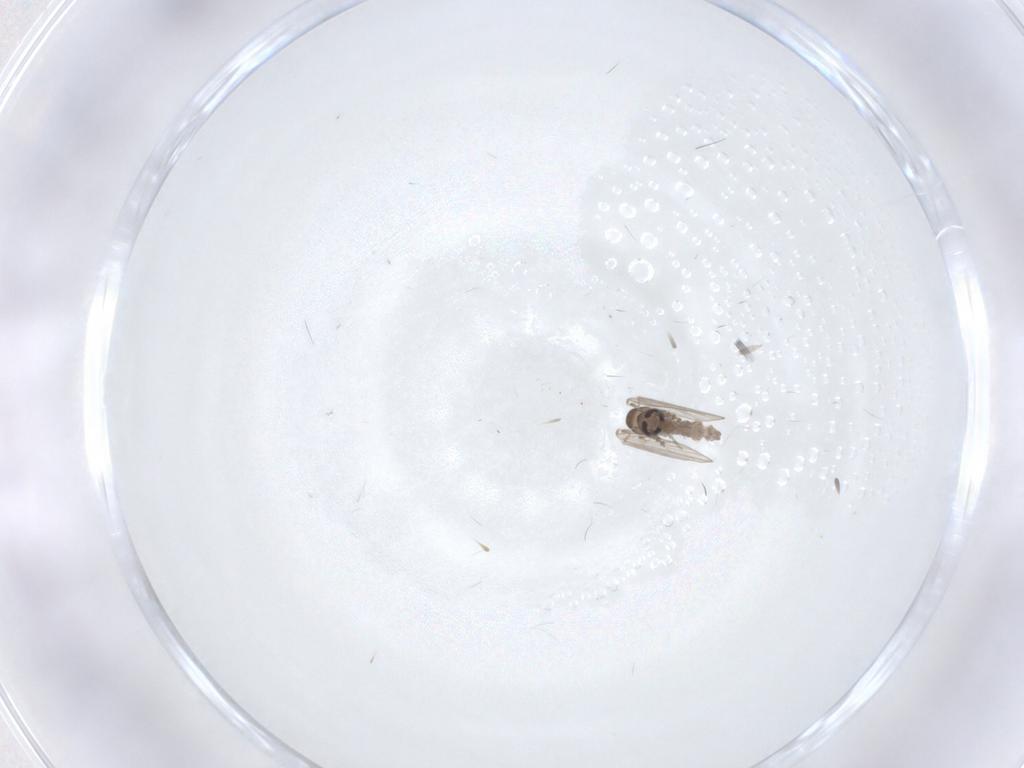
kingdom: Animalia
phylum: Arthropoda
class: Insecta
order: Diptera
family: Psychodidae
